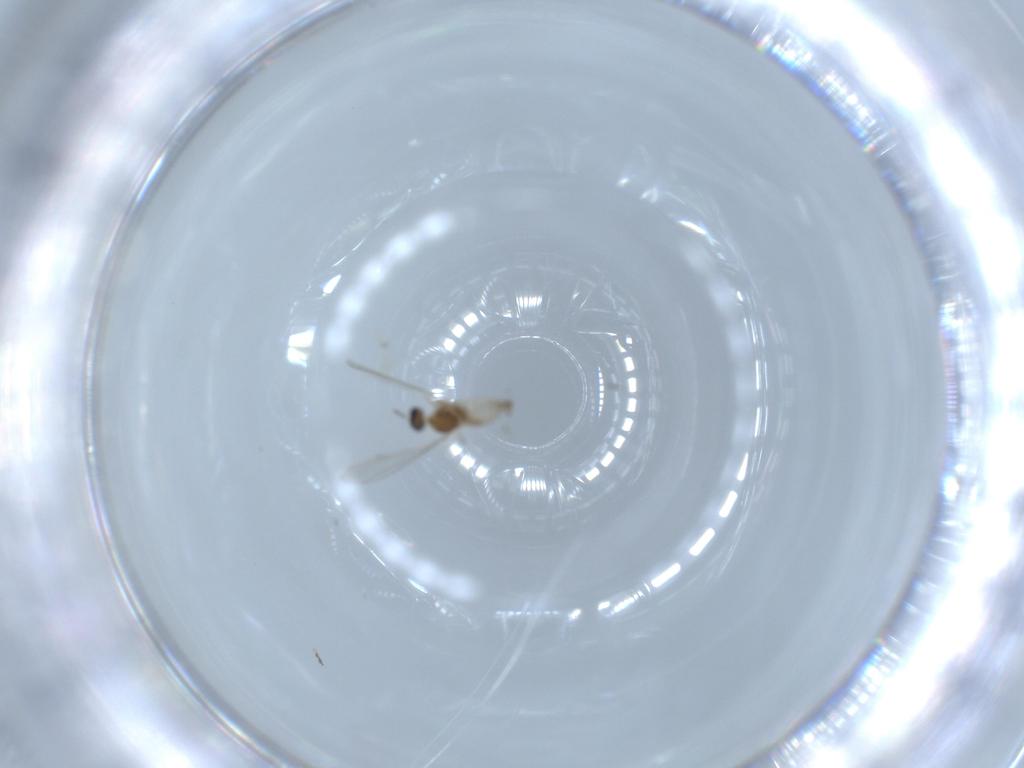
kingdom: Animalia
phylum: Arthropoda
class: Insecta
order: Diptera
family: Cecidomyiidae
